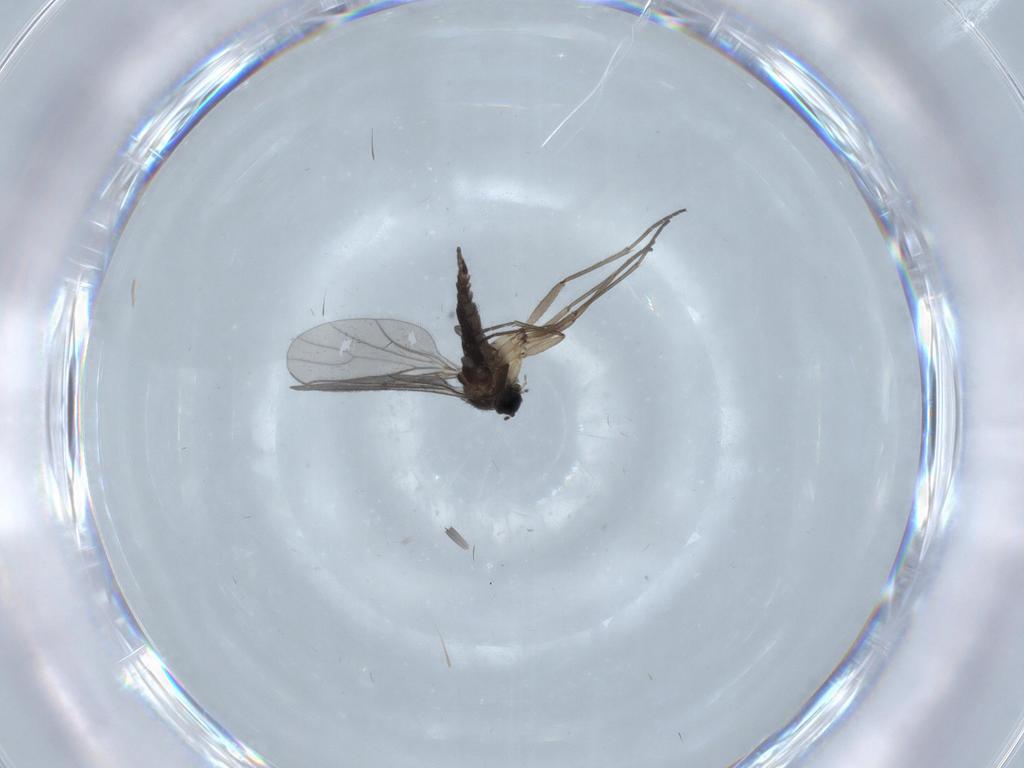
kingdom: Animalia
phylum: Arthropoda
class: Insecta
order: Diptera
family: Sciaridae
